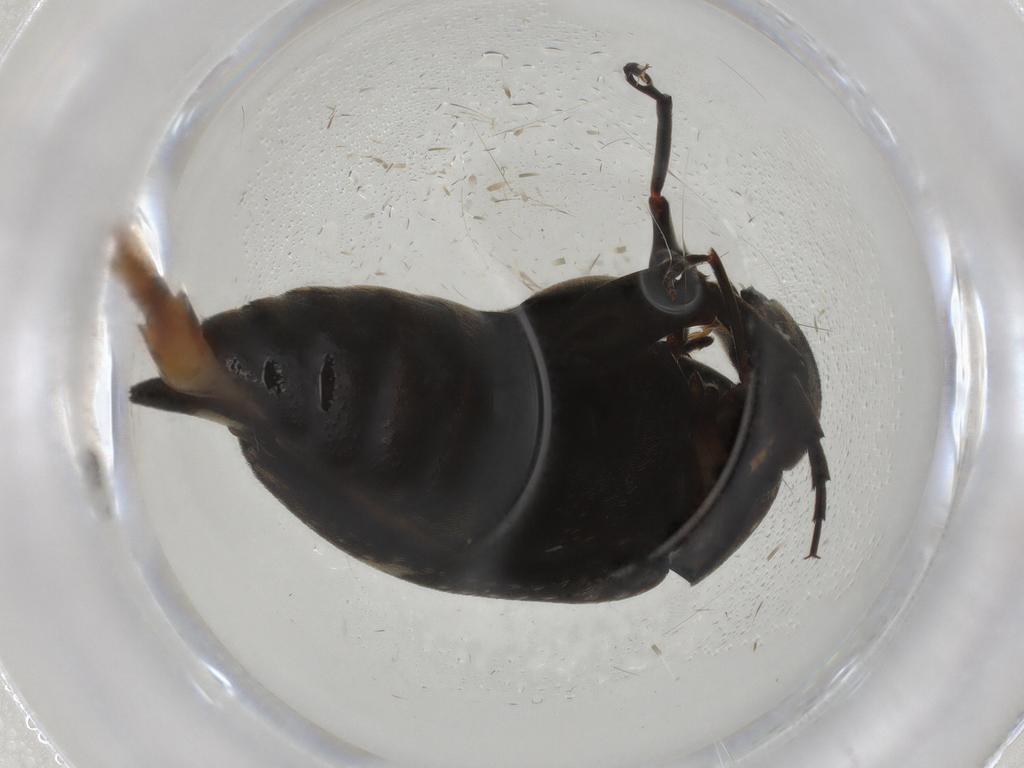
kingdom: Animalia
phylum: Arthropoda
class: Insecta
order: Coleoptera
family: Mordellidae
